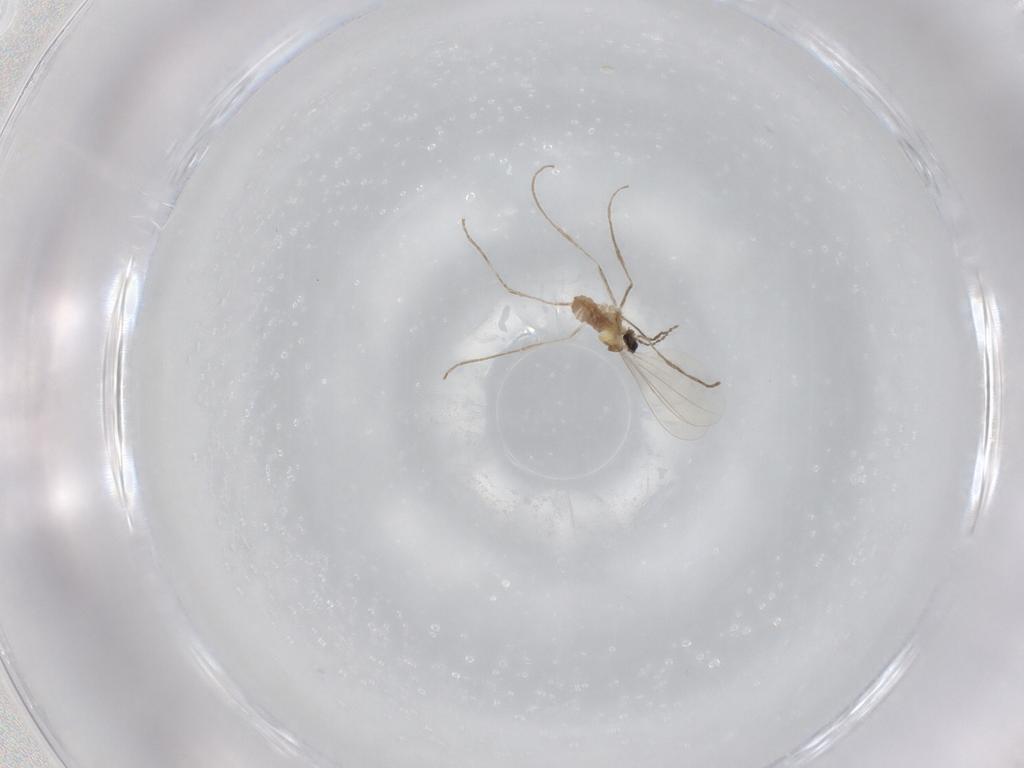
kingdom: Animalia
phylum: Arthropoda
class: Insecta
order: Diptera
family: Cecidomyiidae
